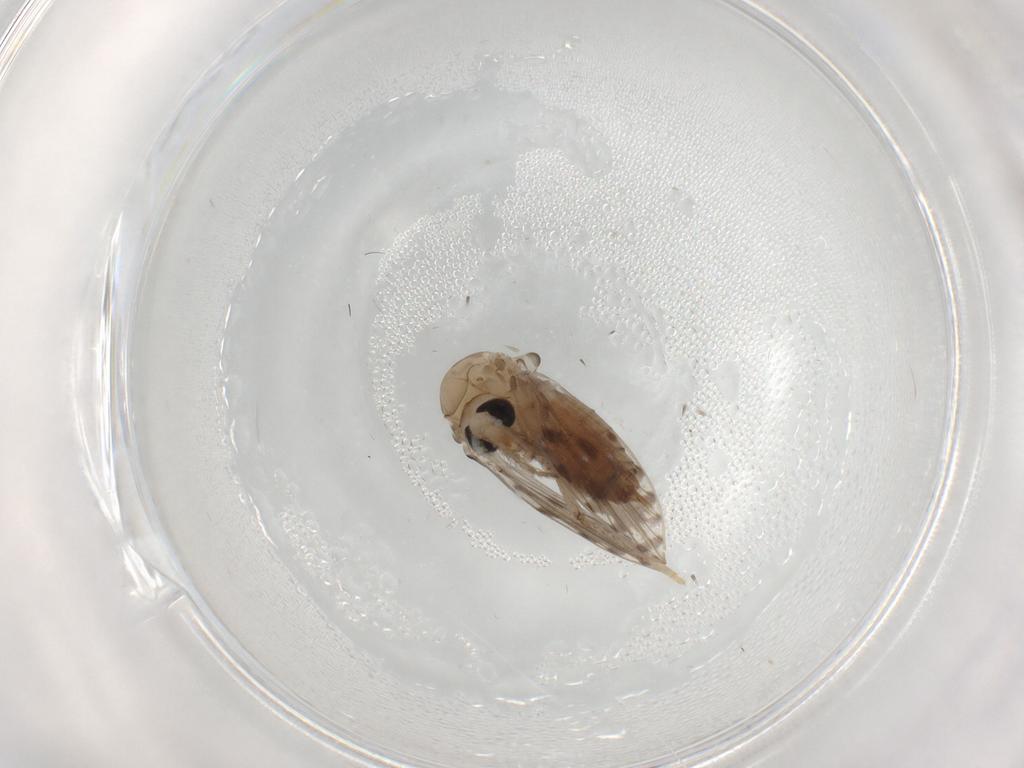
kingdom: Animalia
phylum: Arthropoda
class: Insecta
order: Diptera
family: Psychodidae
